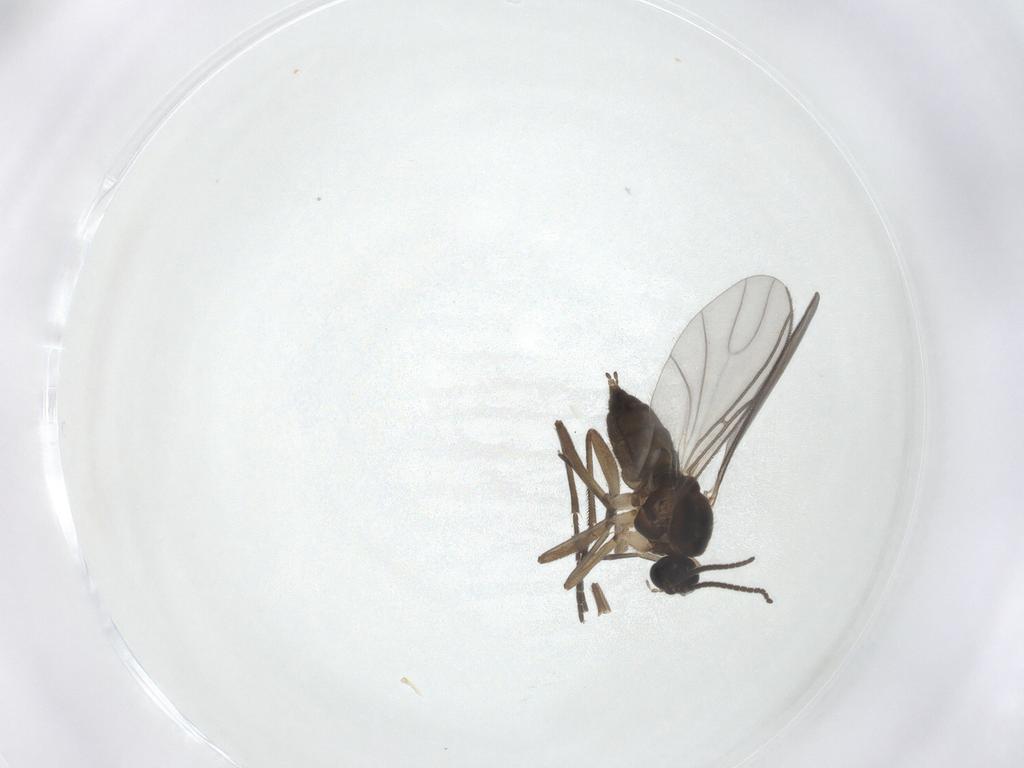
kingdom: Animalia
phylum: Arthropoda
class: Insecta
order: Diptera
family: Sciaridae
